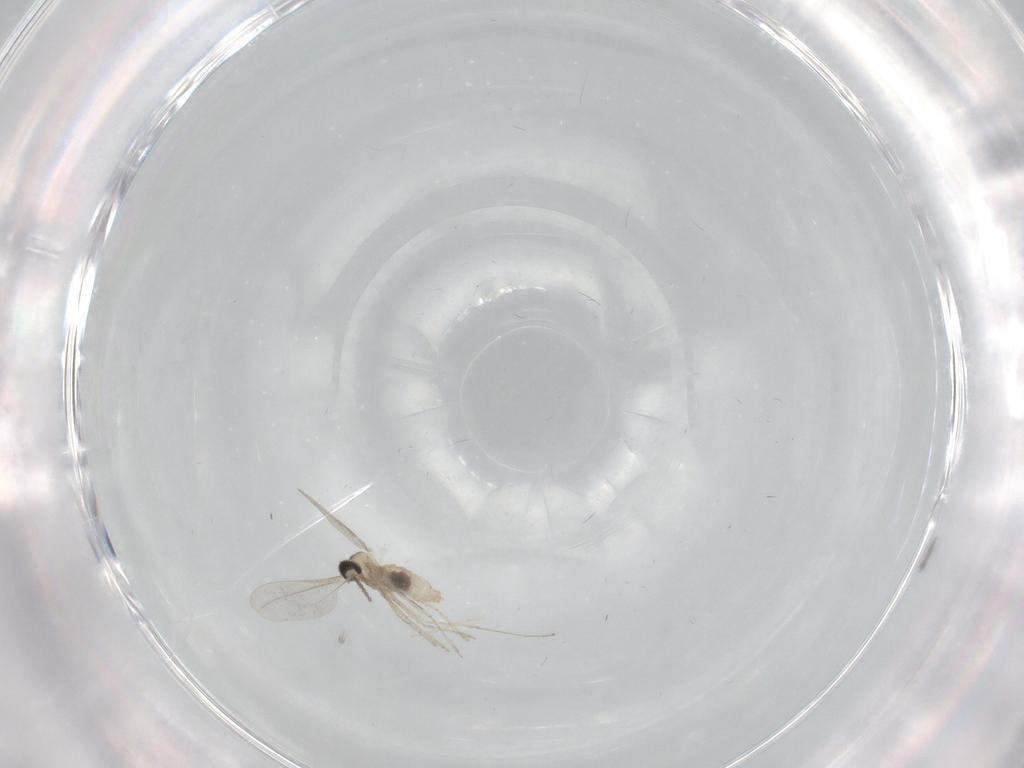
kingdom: Animalia
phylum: Arthropoda
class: Insecta
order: Diptera
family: Cecidomyiidae
